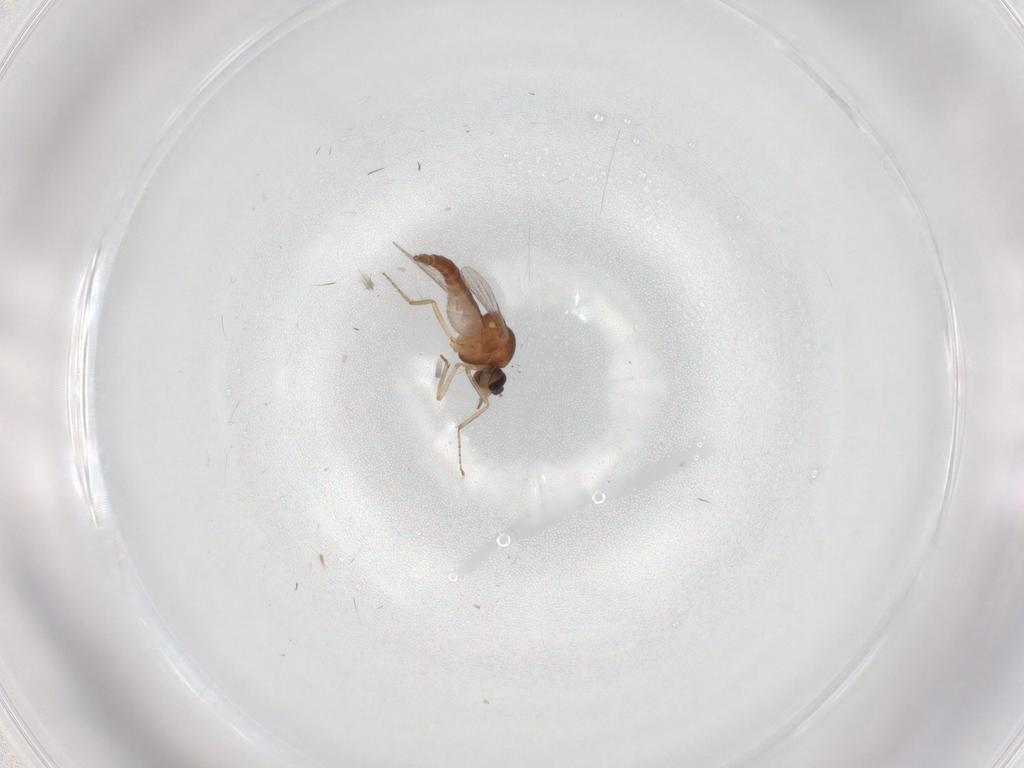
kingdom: Animalia
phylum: Arthropoda
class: Insecta
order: Diptera
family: Ceratopogonidae
